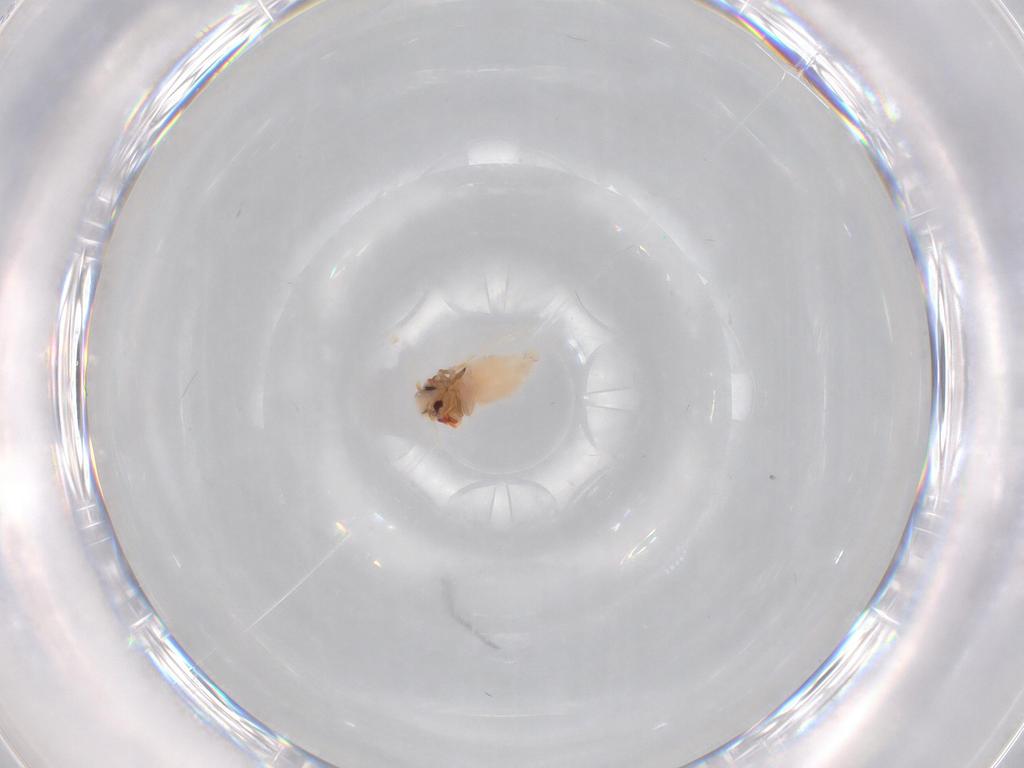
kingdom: Animalia
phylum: Arthropoda
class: Insecta
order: Hemiptera
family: Aleyrodidae
